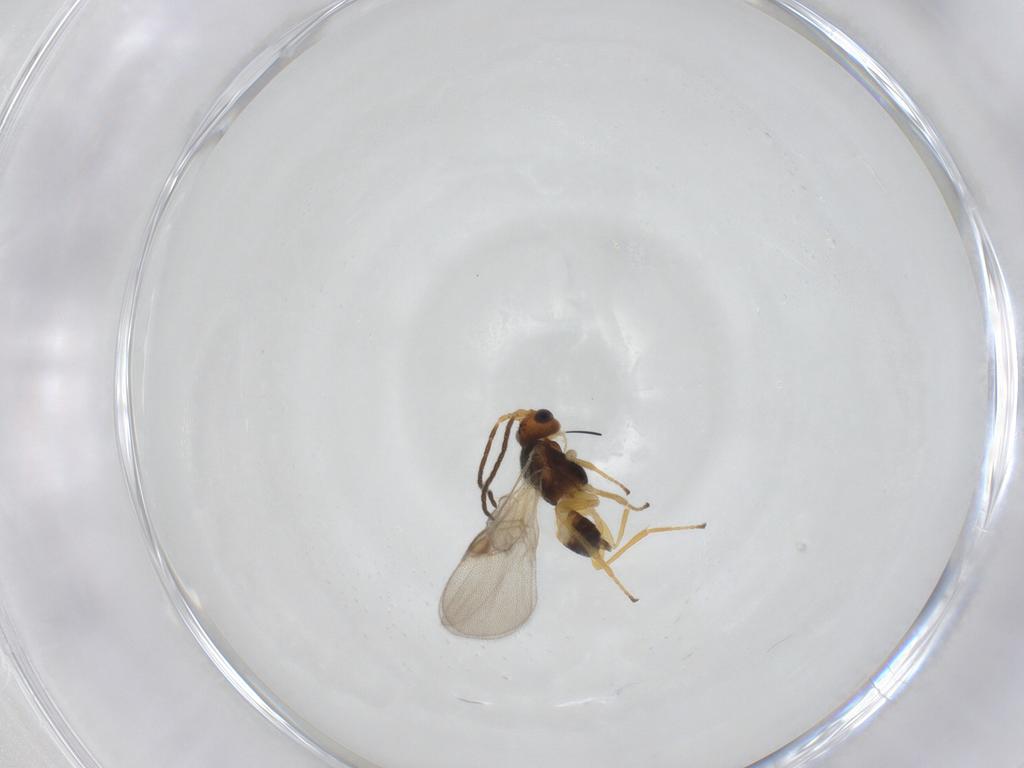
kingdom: Animalia
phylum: Arthropoda
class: Insecta
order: Hymenoptera
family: Braconidae
